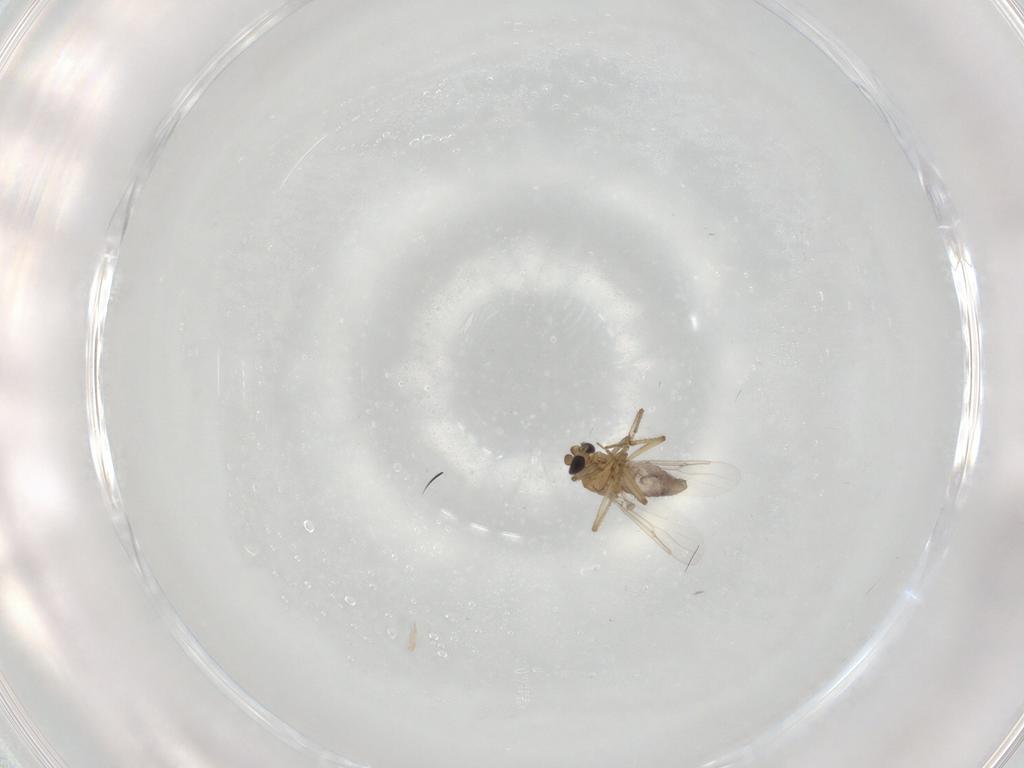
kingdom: Animalia
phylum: Arthropoda
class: Insecta
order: Diptera
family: Ceratopogonidae
